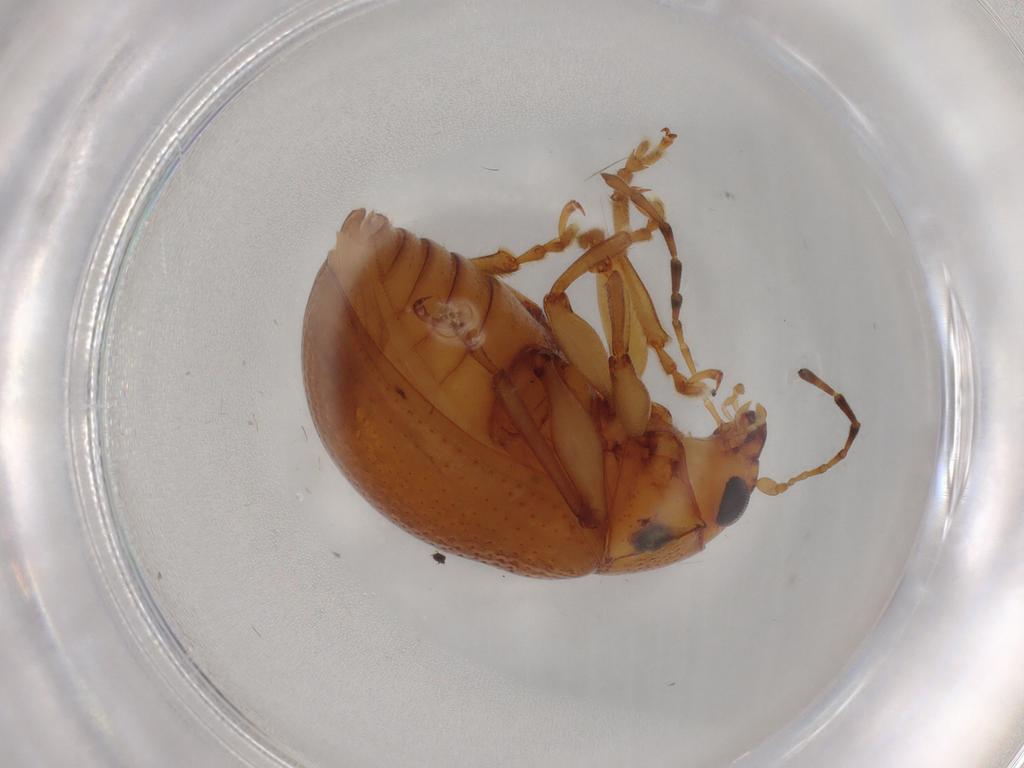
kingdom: Animalia
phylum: Arthropoda
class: Insecta
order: Coleoptera
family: Chrysomelidae
